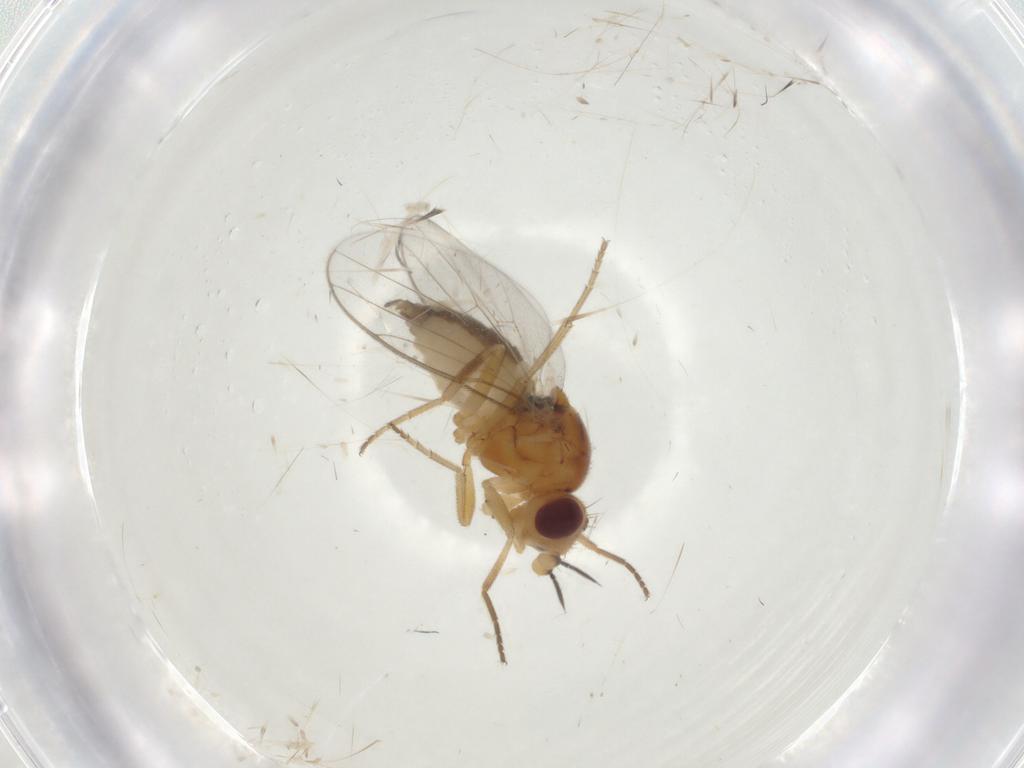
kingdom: Animalia
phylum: Arthropoda
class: Insecta
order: Diptera
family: Chloropidae
